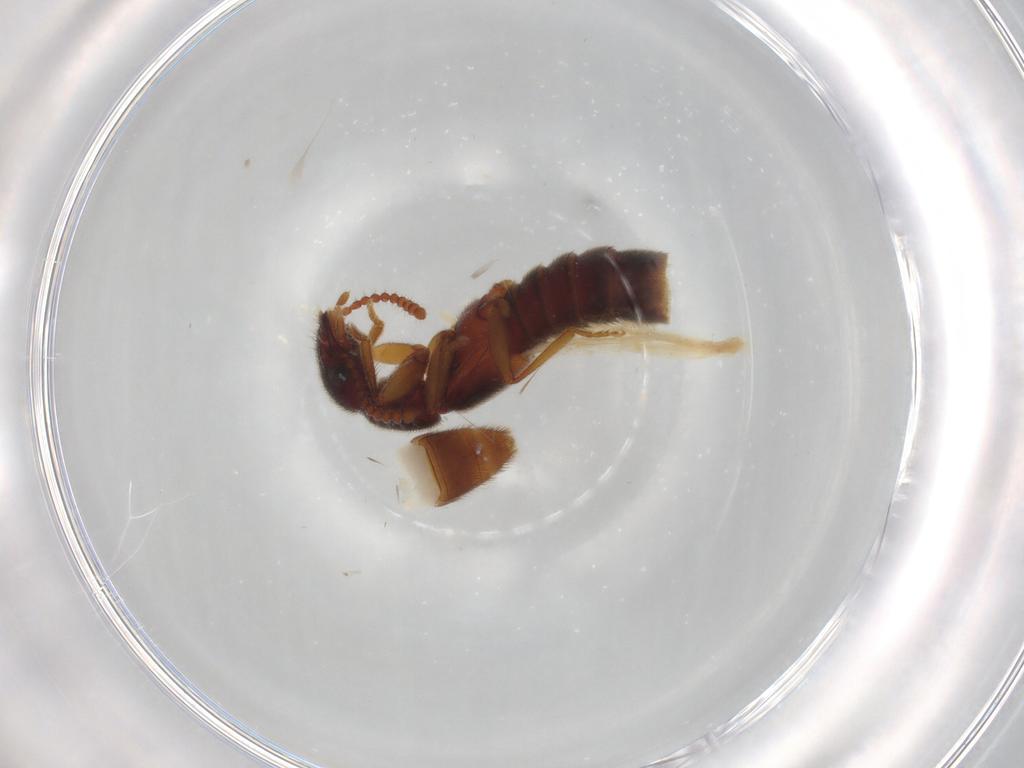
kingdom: Animalia
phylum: Arthropoda
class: Insecta
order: Coleoptera
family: Staphylinidae
